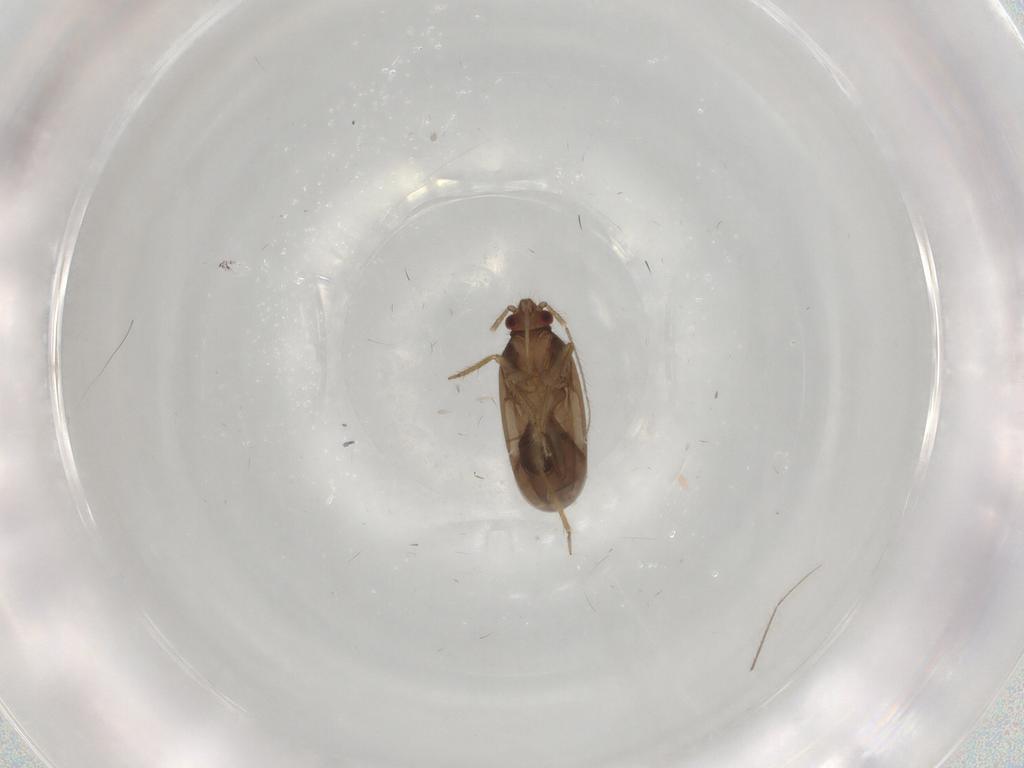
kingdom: Animalia
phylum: Arthropoda
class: Insecta
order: Hemiptera
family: Ceratocombidae
